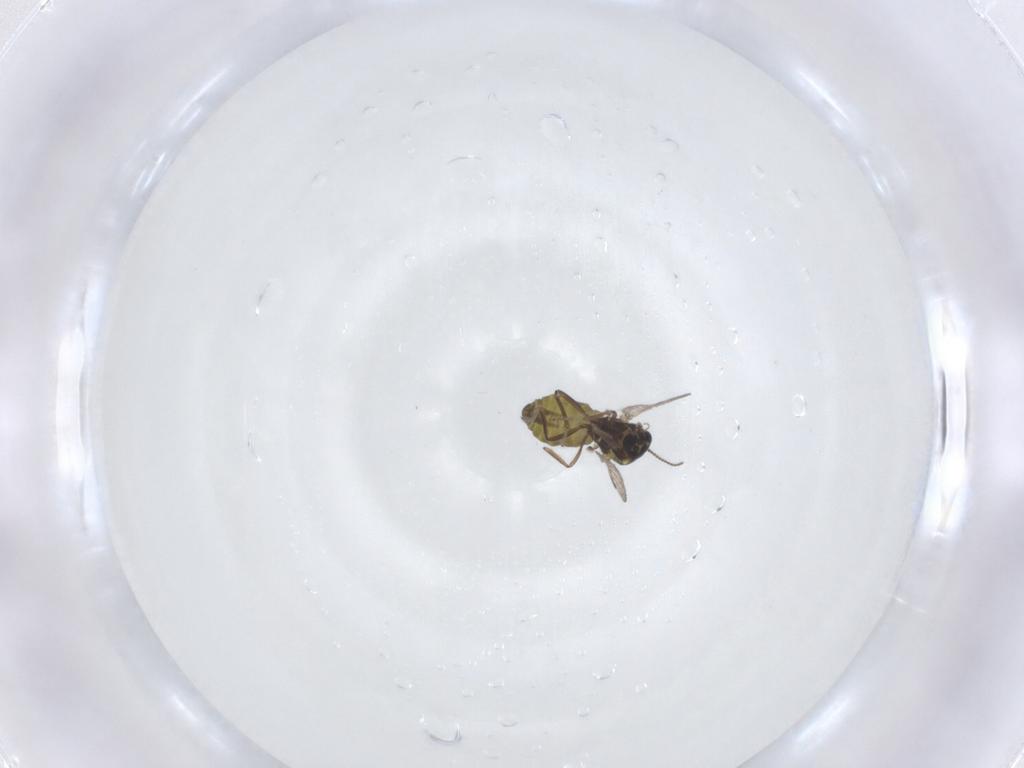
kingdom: Animalia
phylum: Arthropoda
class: Insecta
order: Diptera
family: Ceratopogonidae
